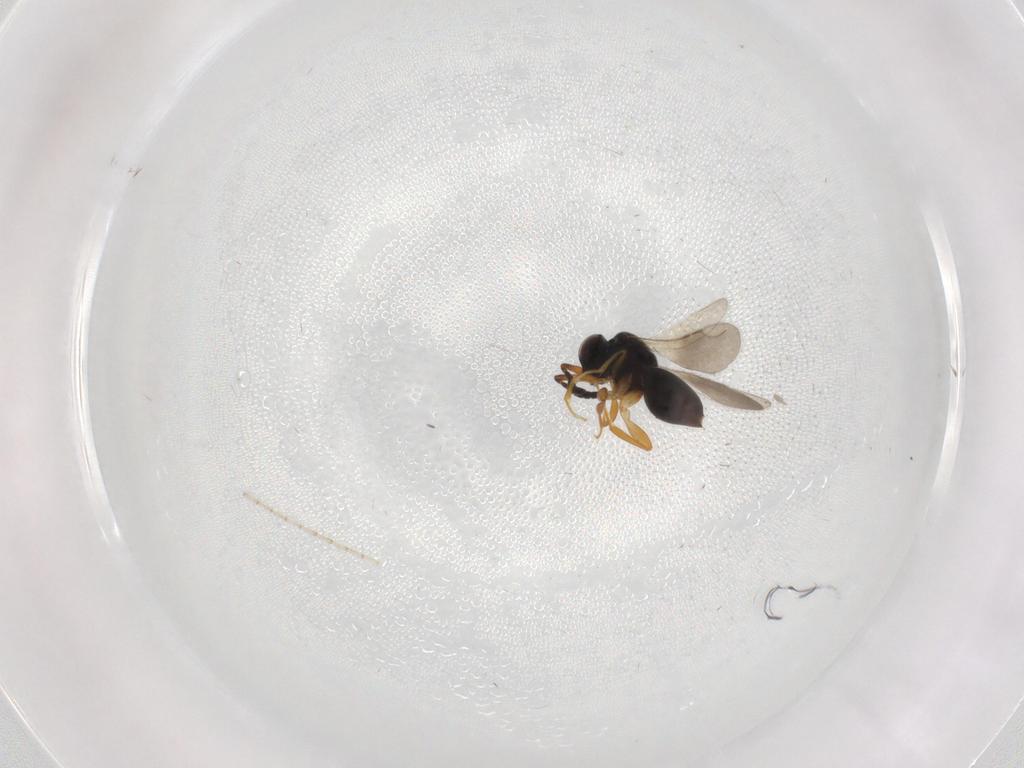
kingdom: Animalia
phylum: Arthropoda
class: Insecta
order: Hymenoptera
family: Ceraphronidae
